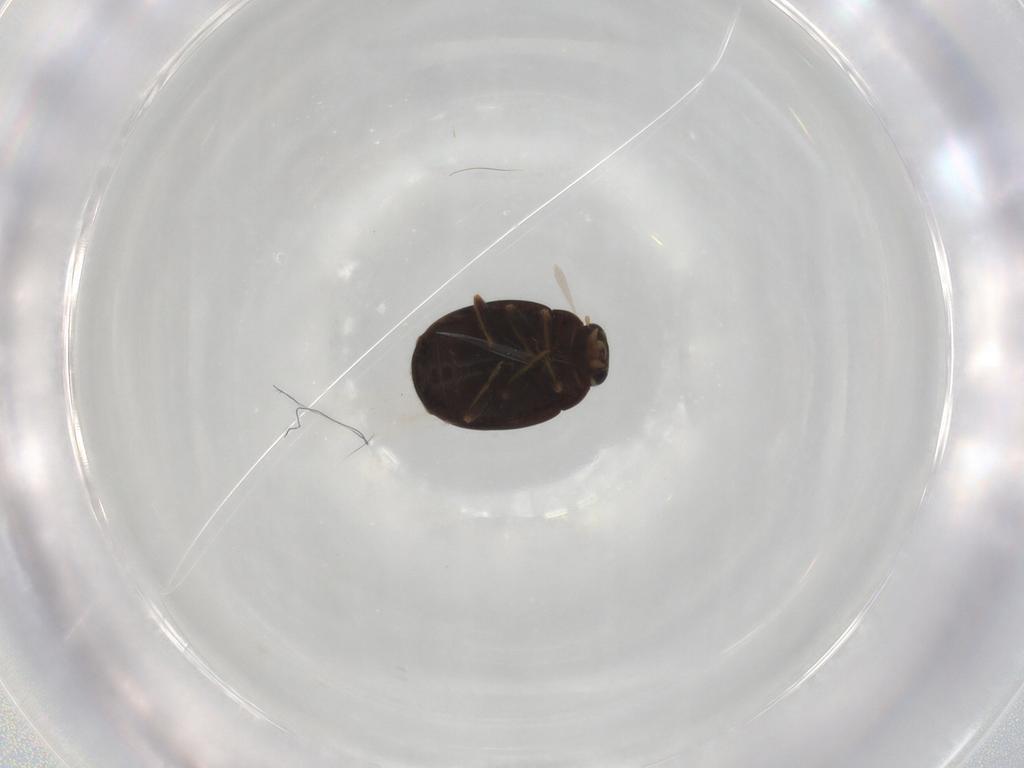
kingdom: Animalia
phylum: Arthropoda
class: Insecta
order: Coleoptera
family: Coccinellidae
